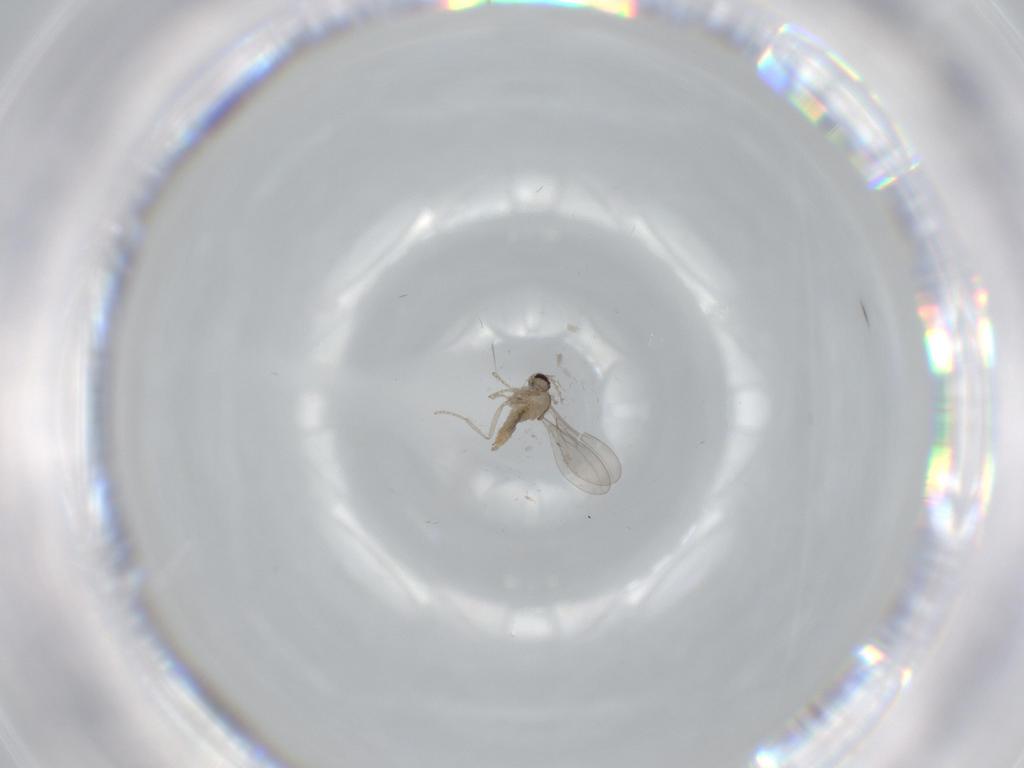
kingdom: Animalia
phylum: Arthropoda
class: Insecta
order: Diptera
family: Cecidomyiidae
